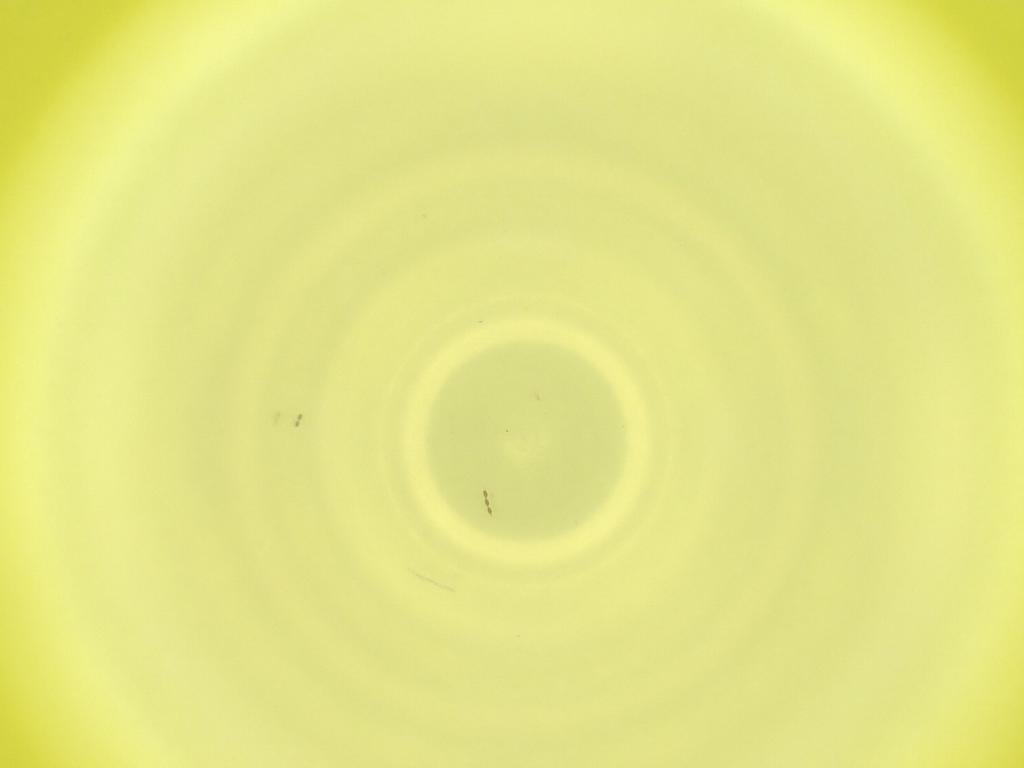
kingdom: Animalia
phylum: Arthropoda
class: Insecta
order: Diptera
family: Cecidomyiidae
